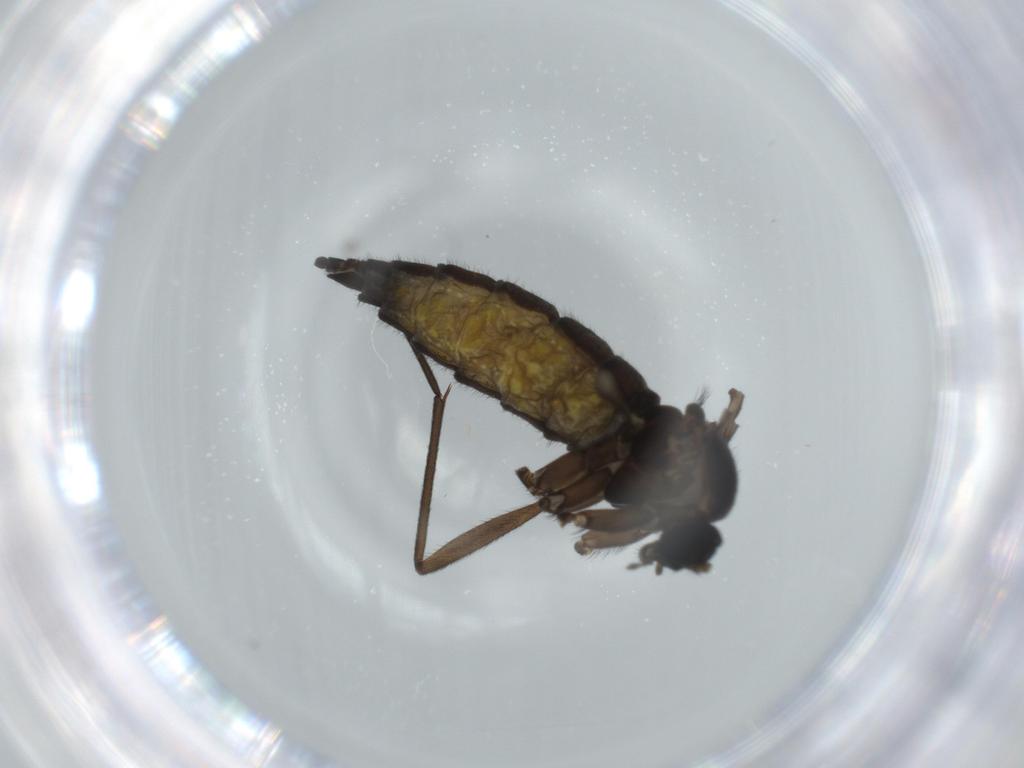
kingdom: Animalia
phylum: Arthropoda
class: Insecta
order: Diptera
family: Sciaridae
